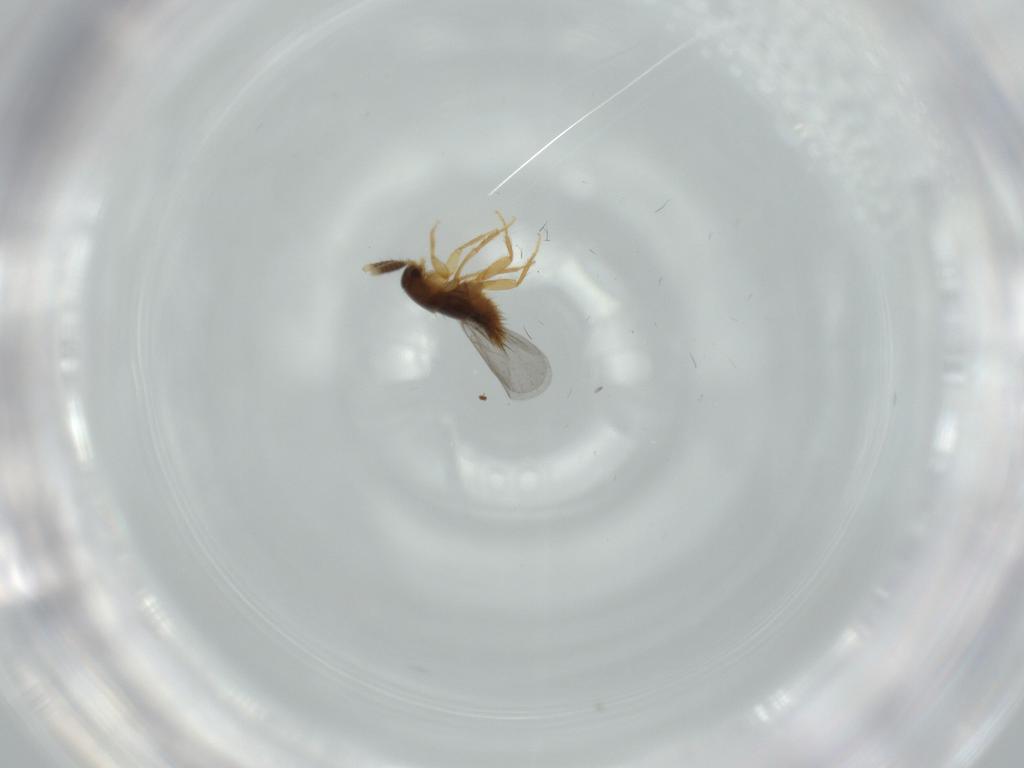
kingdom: Animalia
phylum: Arthropoda
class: Insecta
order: Coleoptera
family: Staphylinidae
